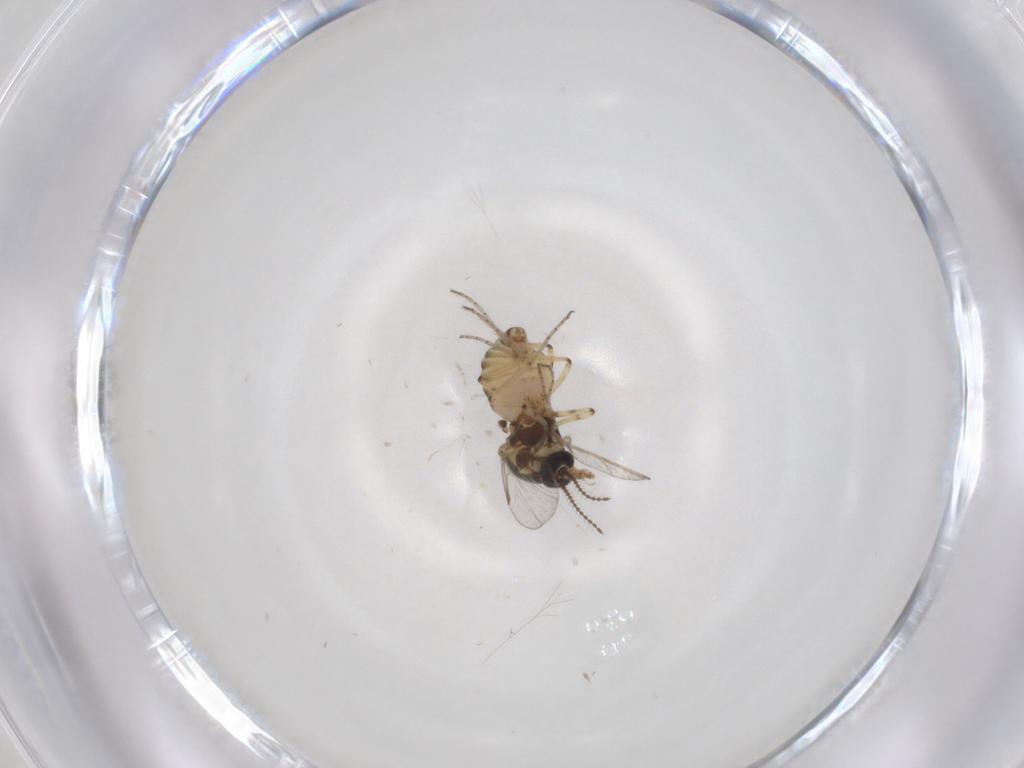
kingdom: Animalia
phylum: Arthropoda
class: Insecta
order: Diptera
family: Ceratopogonidae
